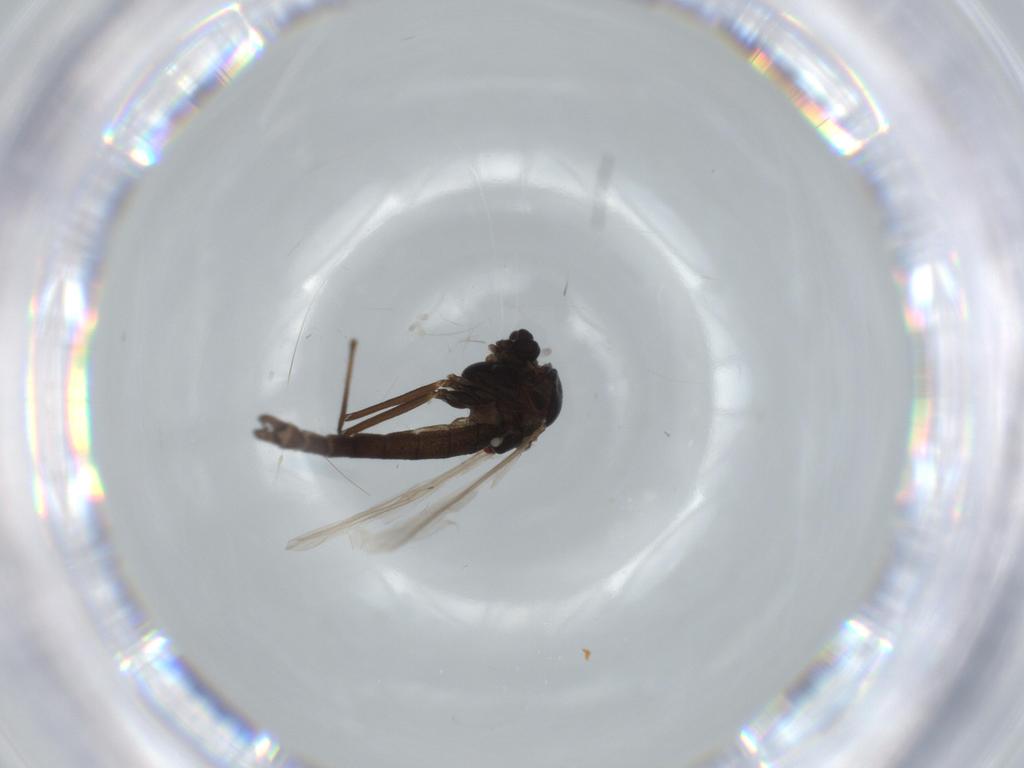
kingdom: Animalia
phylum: Arthropoda
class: Insecta
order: Diptera
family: Chironomidae
